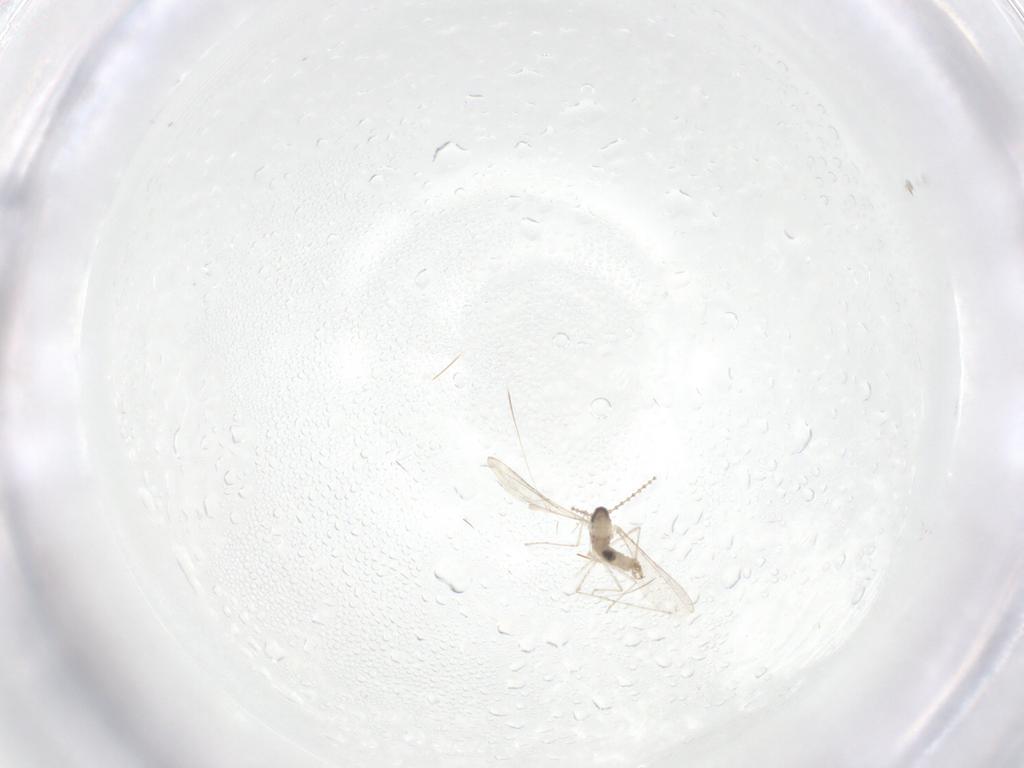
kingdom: Animalia
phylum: Arthropoda
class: Insecta
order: Diptera
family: Cecidomyiidae
